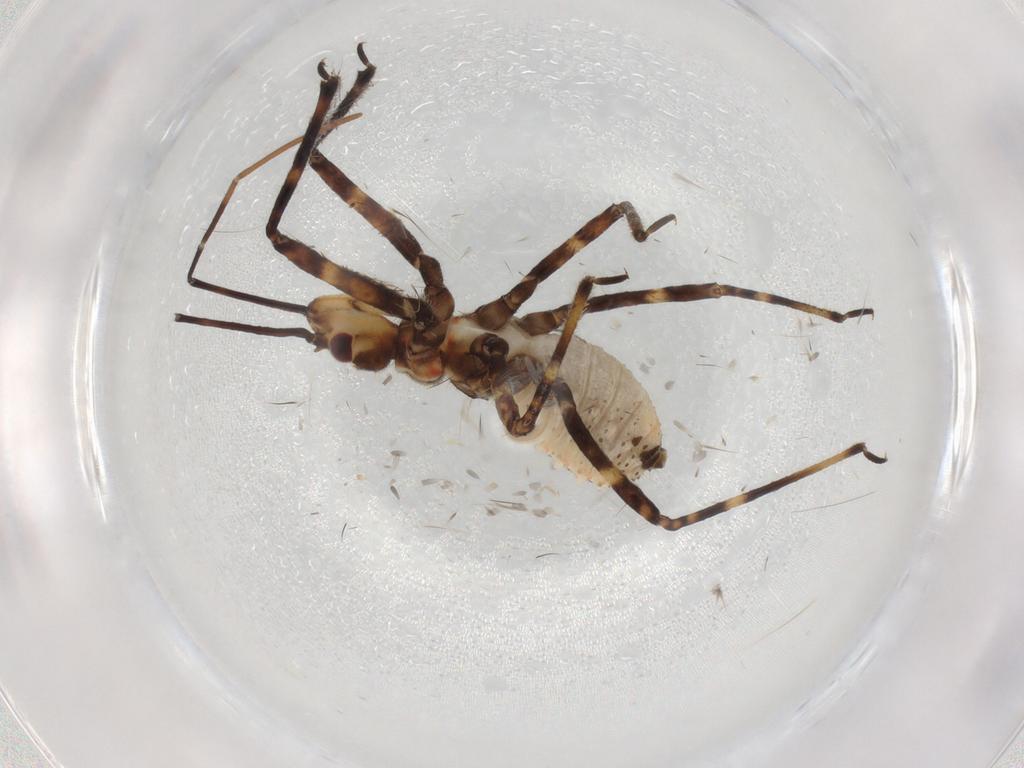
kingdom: Animalia
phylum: Arthropoda
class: Insecta
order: Hemiptera
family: Reduviidae
